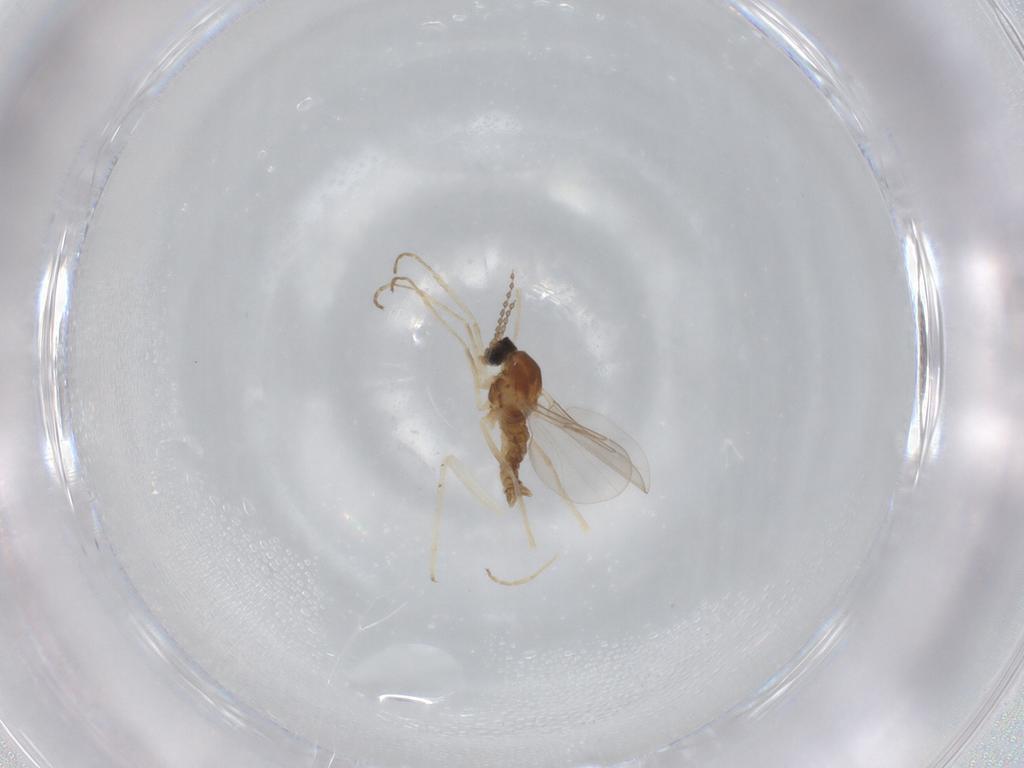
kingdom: Animalia
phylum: Arthropoda
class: Insecta
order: Diptera
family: Cecidomyiidae
